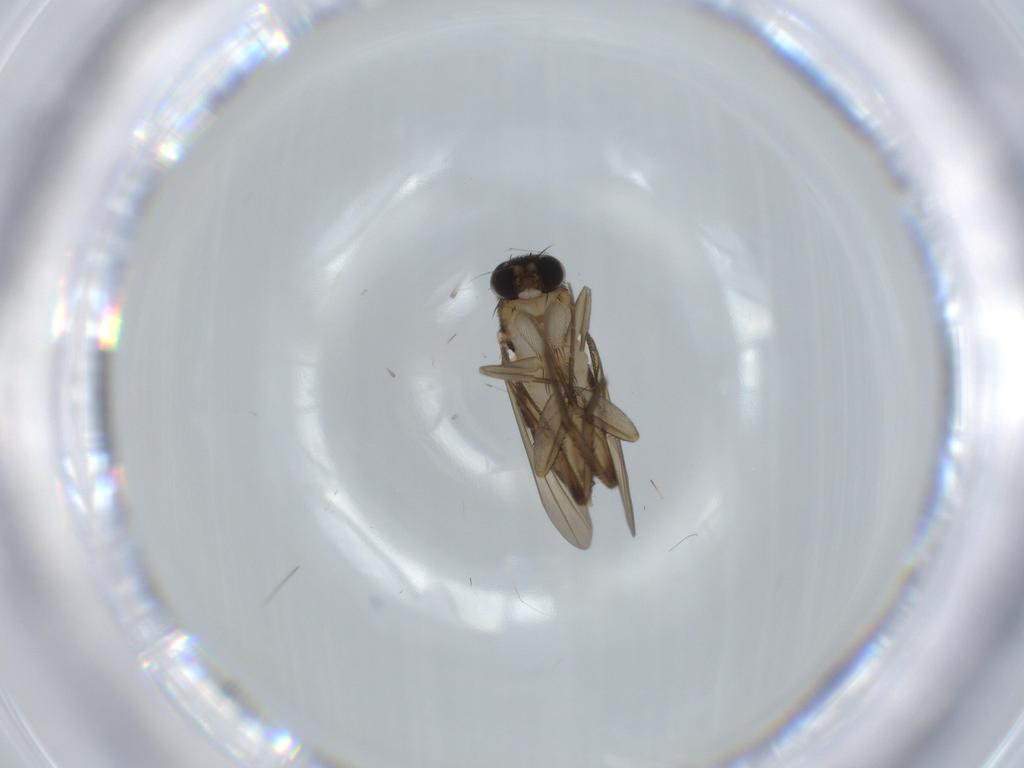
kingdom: Animalia
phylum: Arthropoda
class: Insecta
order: Diptera
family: Phoridae
